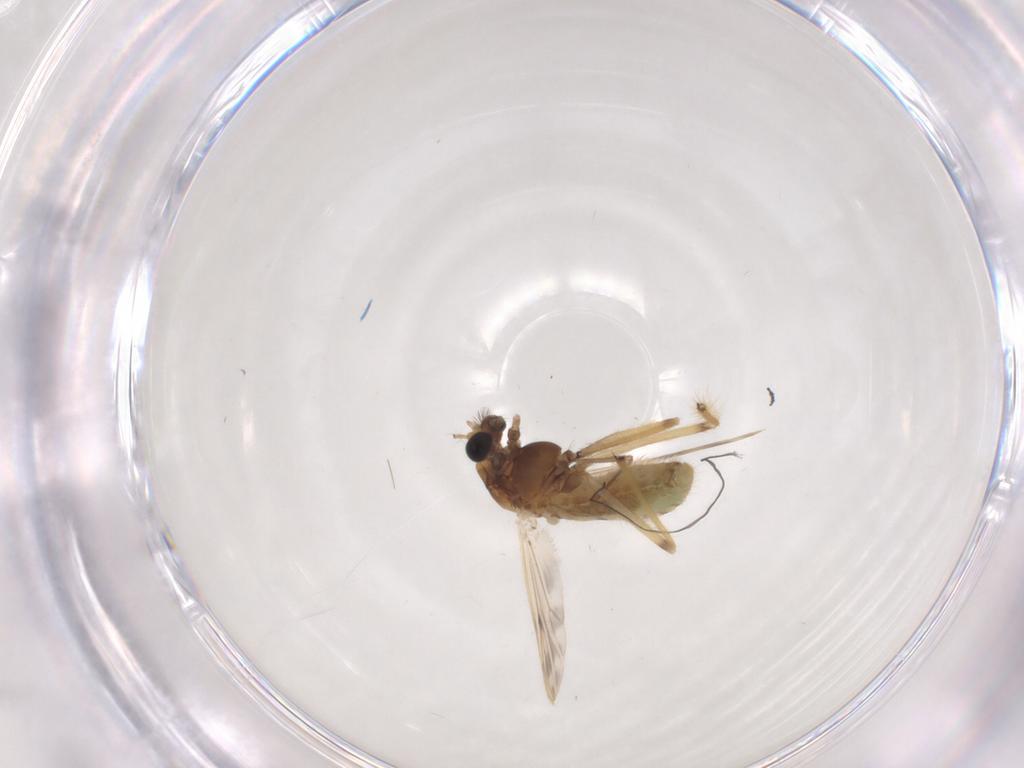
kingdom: Animalia
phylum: Arthropoda
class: Insecta
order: Diptera
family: Chironomidae
